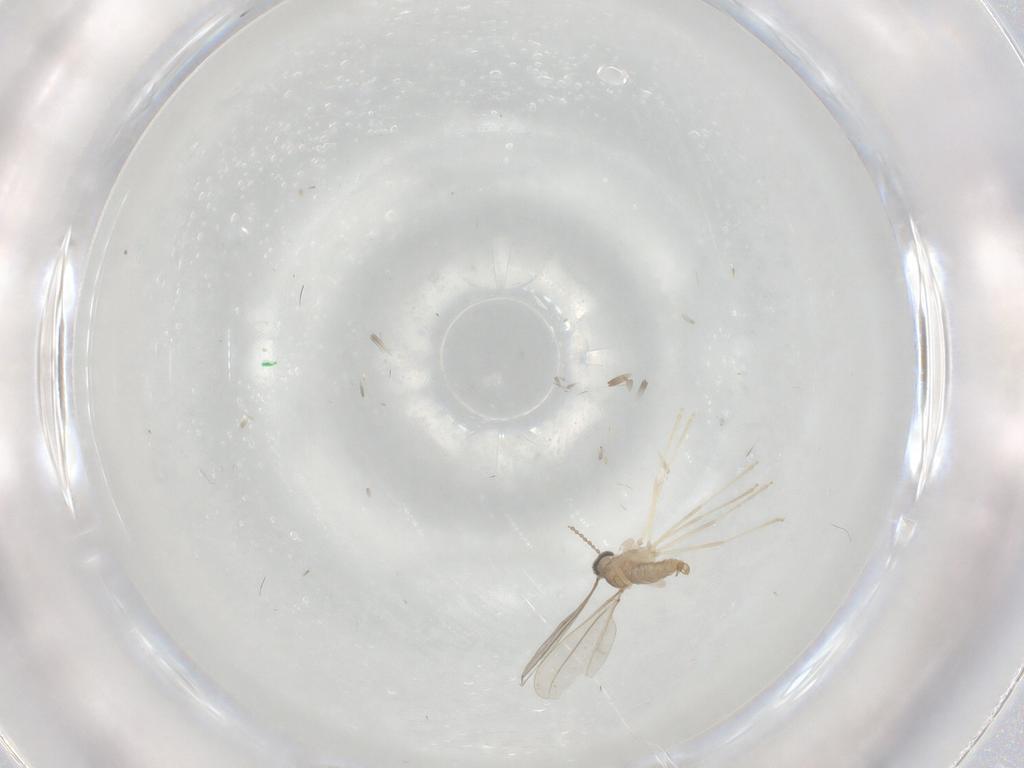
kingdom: Animalia
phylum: Arthropoda
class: Insecta
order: Diptera
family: Cecidomyiidae
